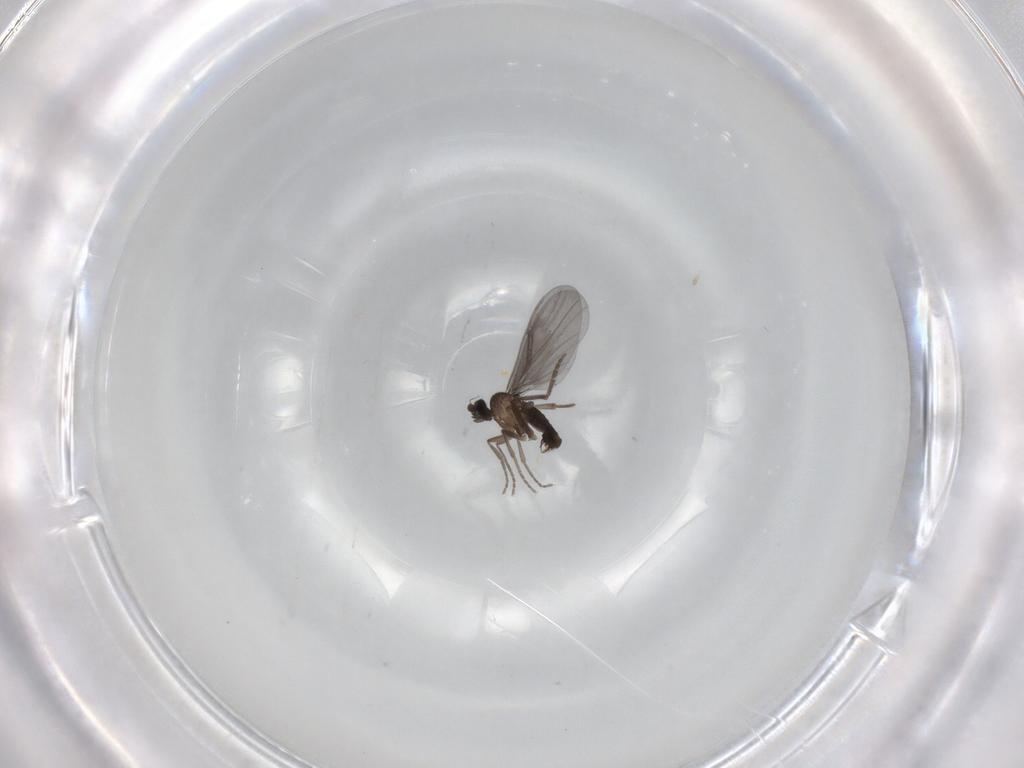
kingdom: Animalia
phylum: Arthropoda
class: Insecta
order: Diptera
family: Phoridae
